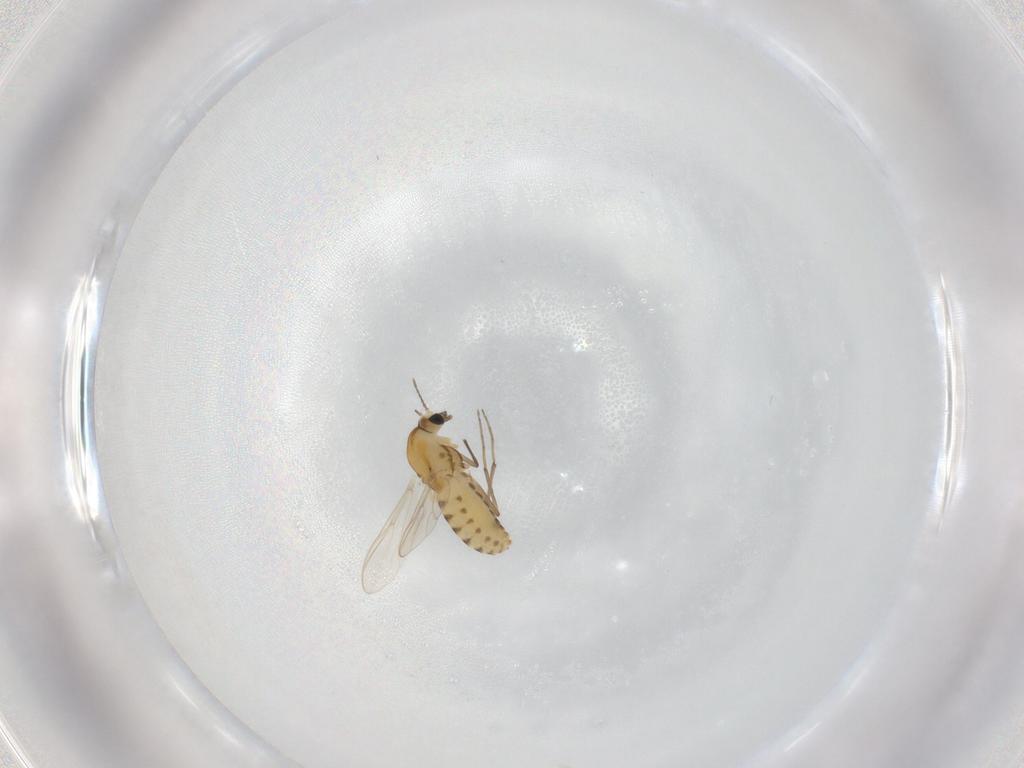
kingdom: Animalia
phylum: Arthropoda
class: Insecta
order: Diptera
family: Chironomidae
